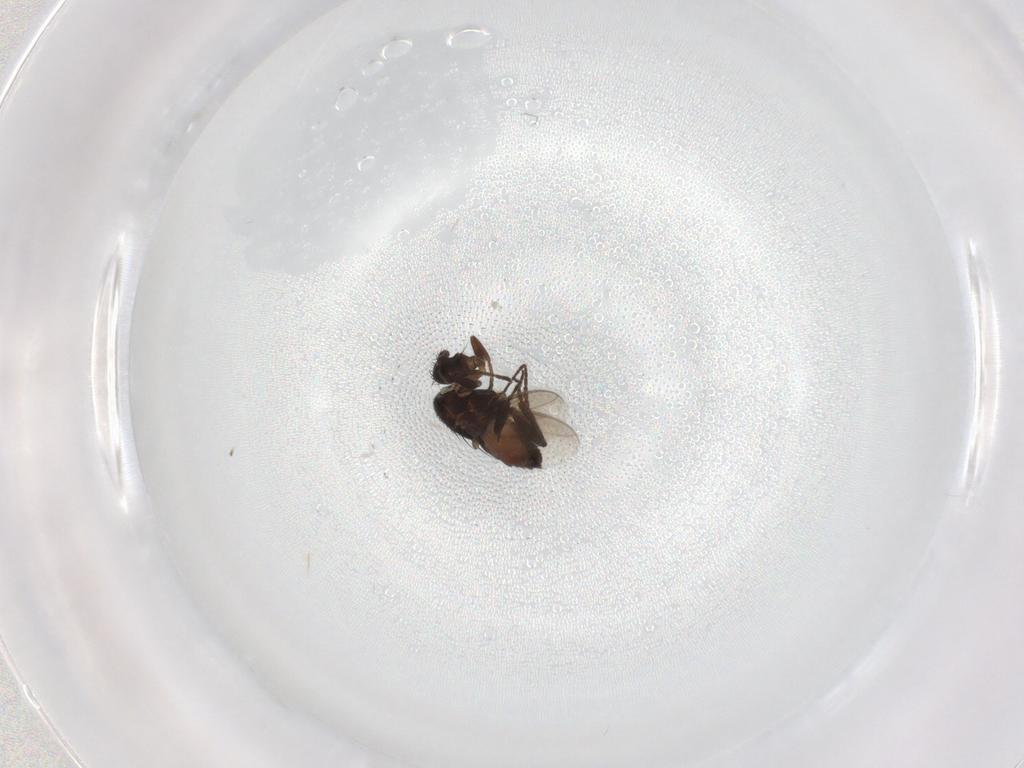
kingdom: Animalia
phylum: Arthropoda
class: Insecta
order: Diptera
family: Sphaeroceridae
